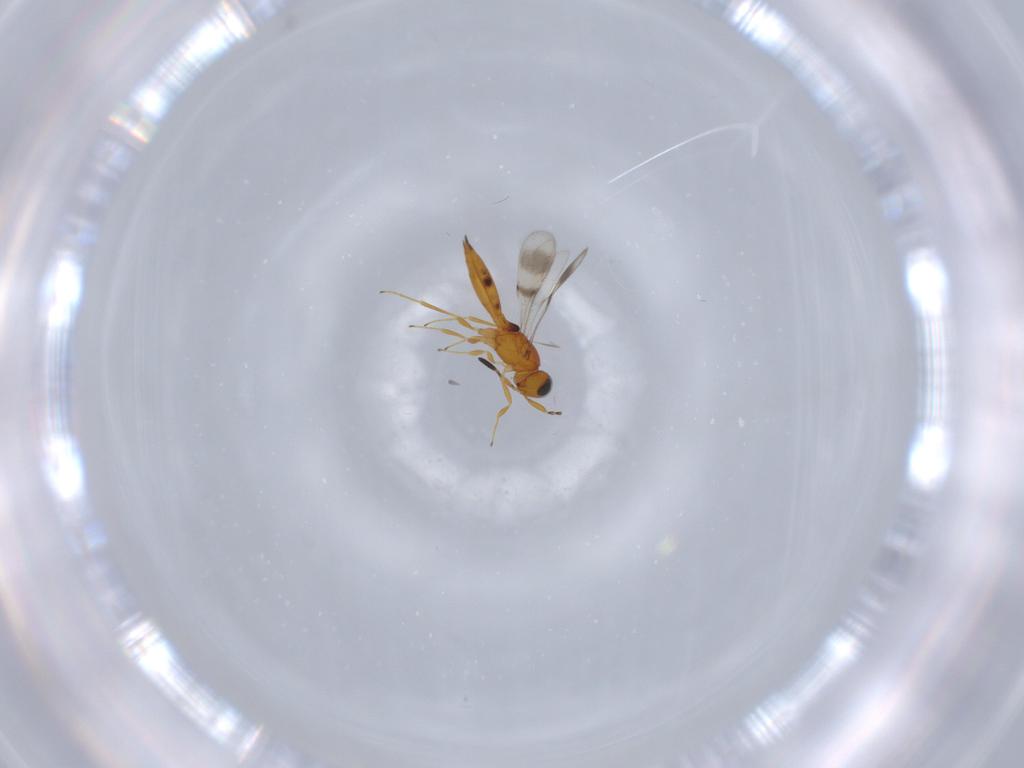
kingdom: Animalia
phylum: Arthropoda
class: Insecta
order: Hymenoptera
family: Scelionidae
